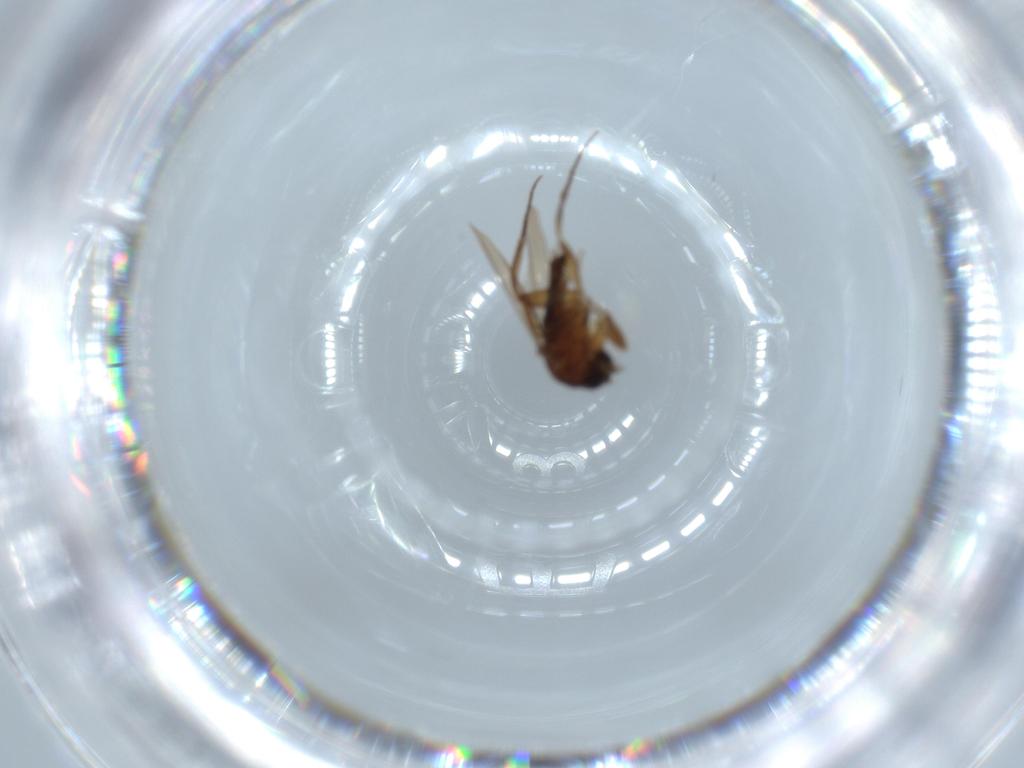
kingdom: Animalia
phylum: Arthropoda
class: Insecta
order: Diptera
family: Phoridae
